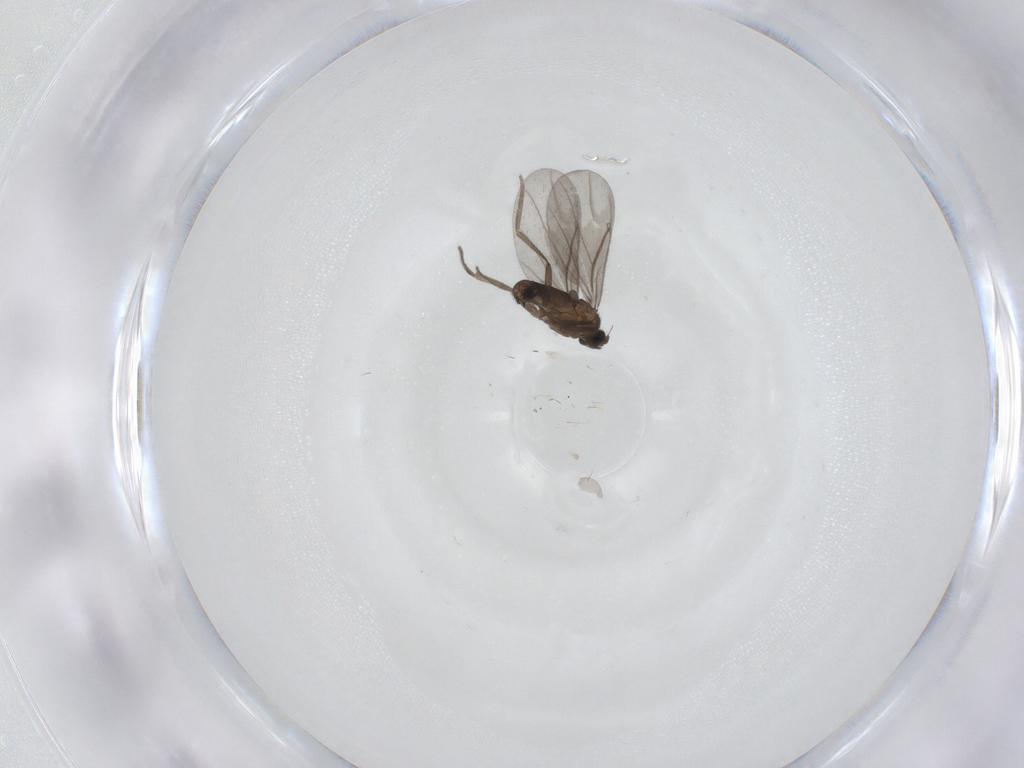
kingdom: Animalia
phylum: Arthropoda
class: Insecta
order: Diptera
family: Phoridae
